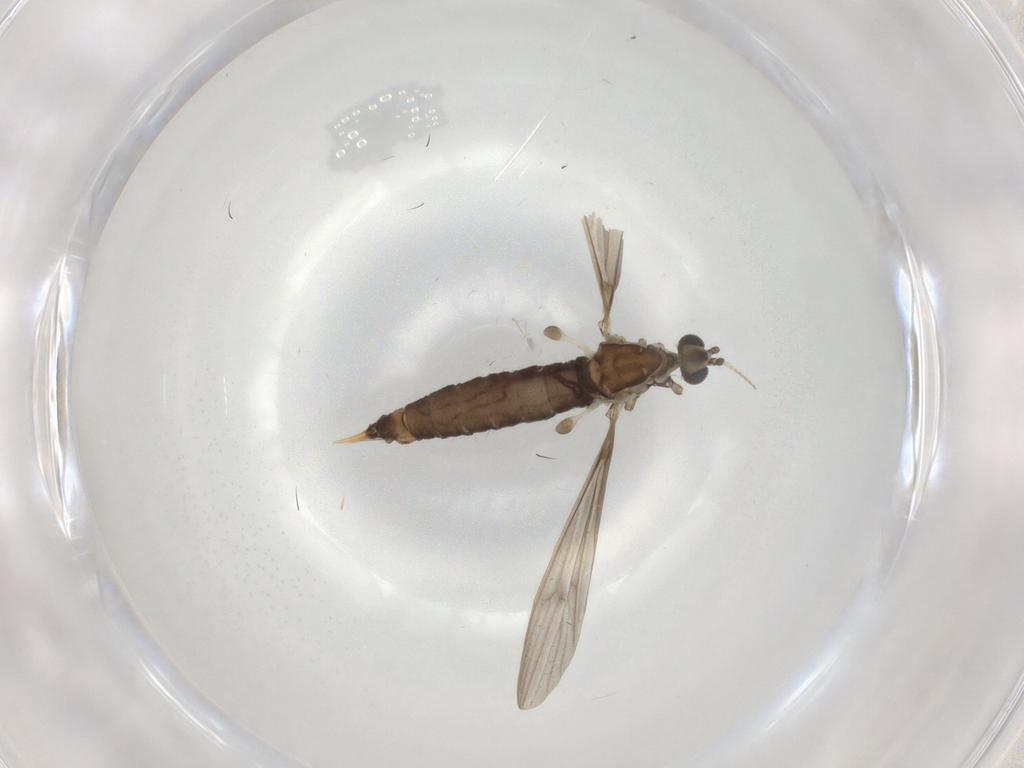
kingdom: Animalia
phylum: Arthropoda
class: Insecta
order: Diptera
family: Limoniidae
